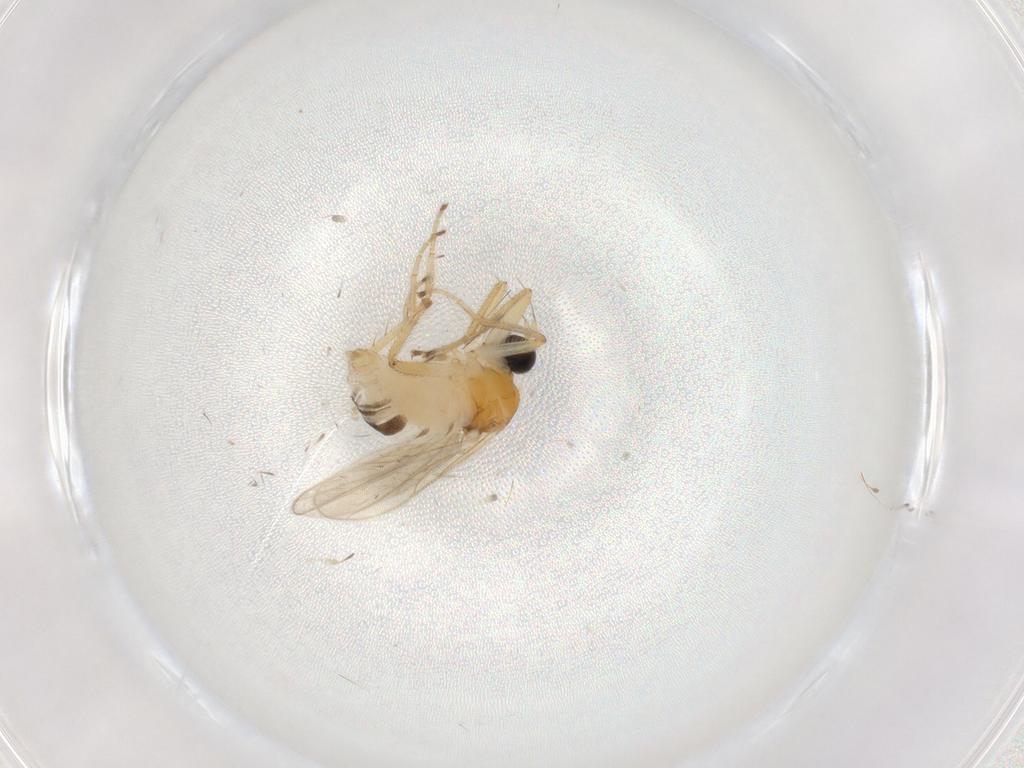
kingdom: Animalia
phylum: Arthropoda
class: Insecta
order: Diptera
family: Hybotidae
